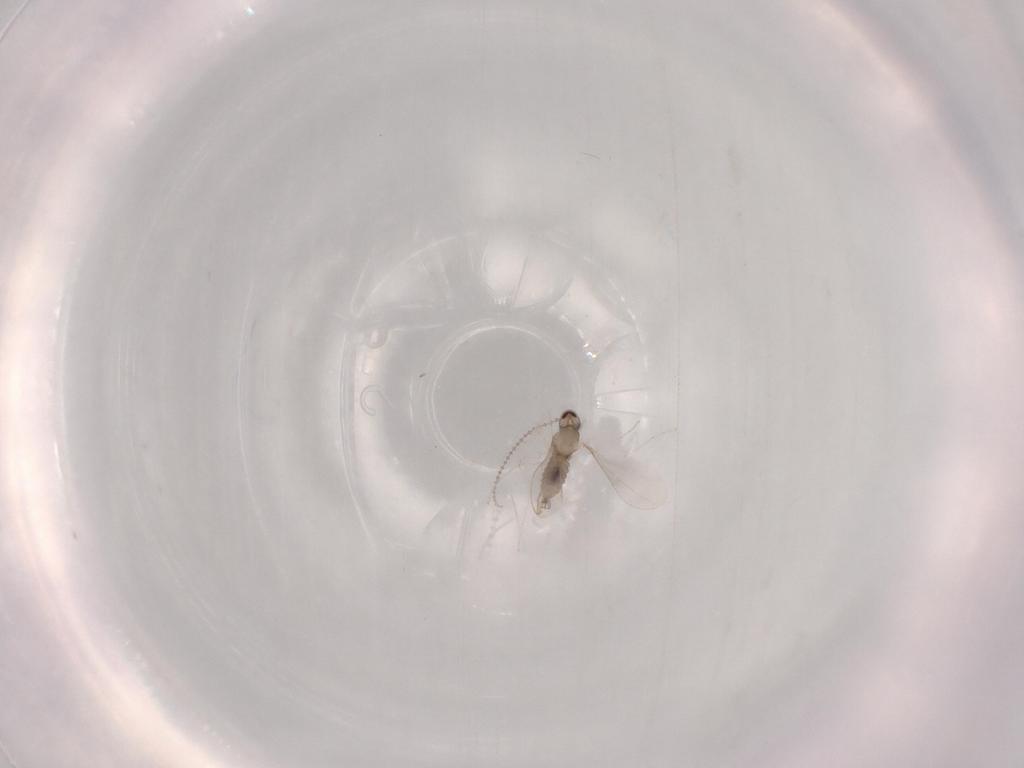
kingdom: Animalia
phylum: Arthropoda
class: Insecta
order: Diptera
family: Cecidomyiidae
